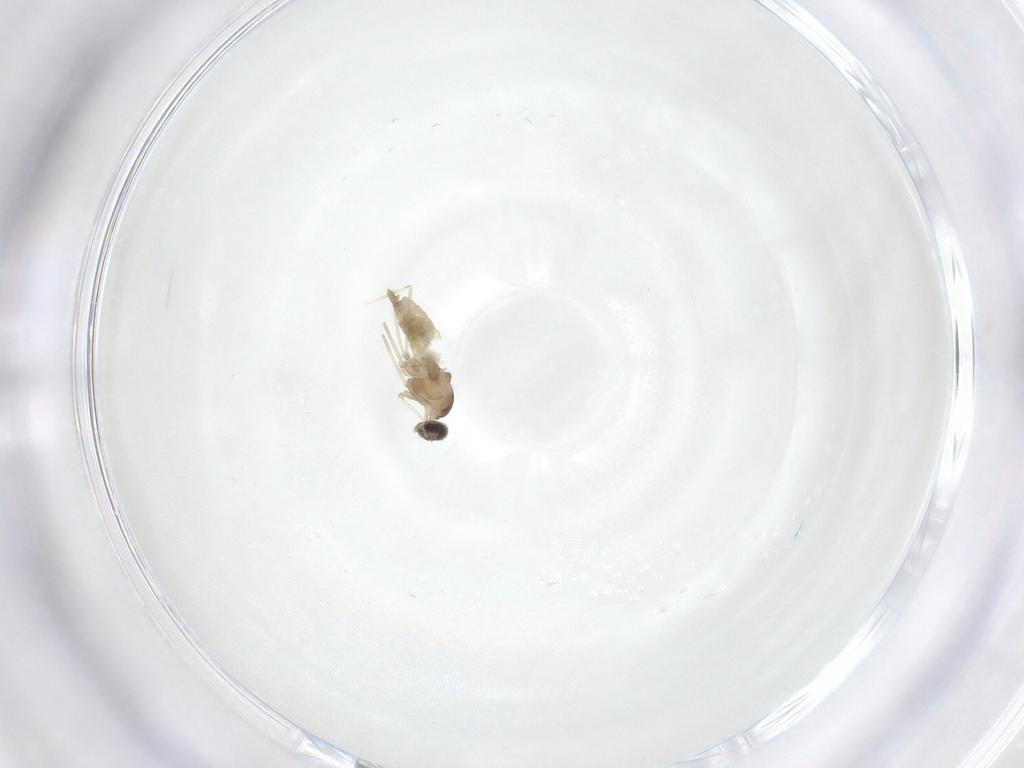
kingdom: Animalia
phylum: Arthropoda
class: Insecta
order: Diptera
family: Cecidomyiidae
